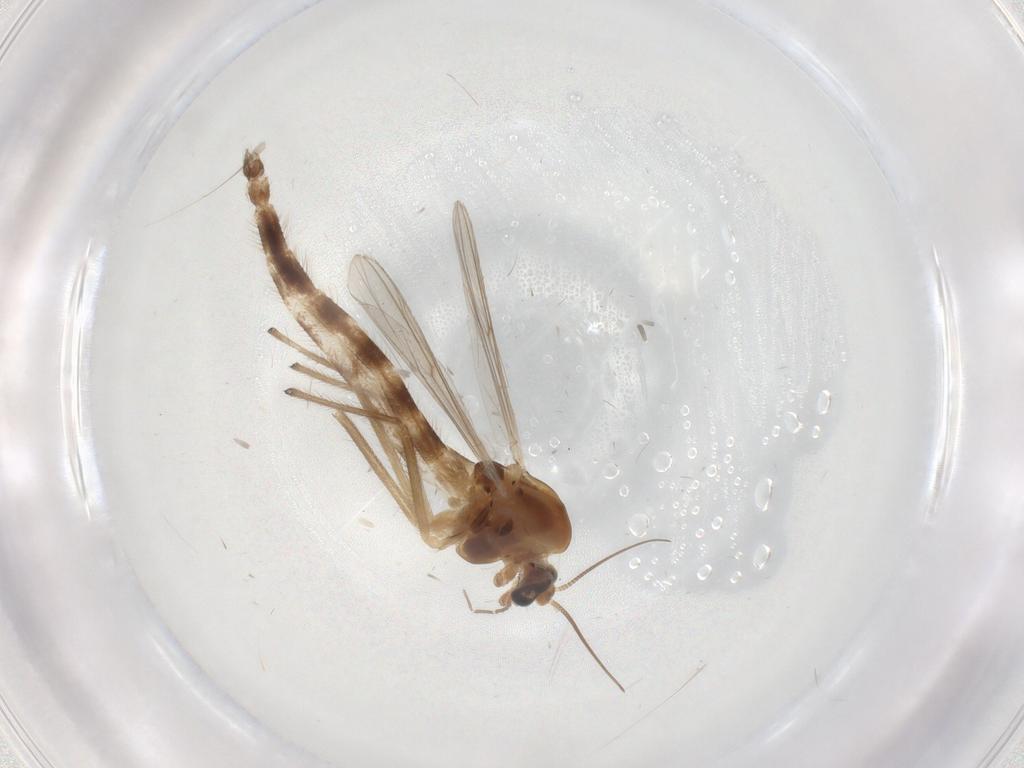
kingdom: Animalia
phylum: Arthropoda
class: Insecta
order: Diptera
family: Chironomidae
